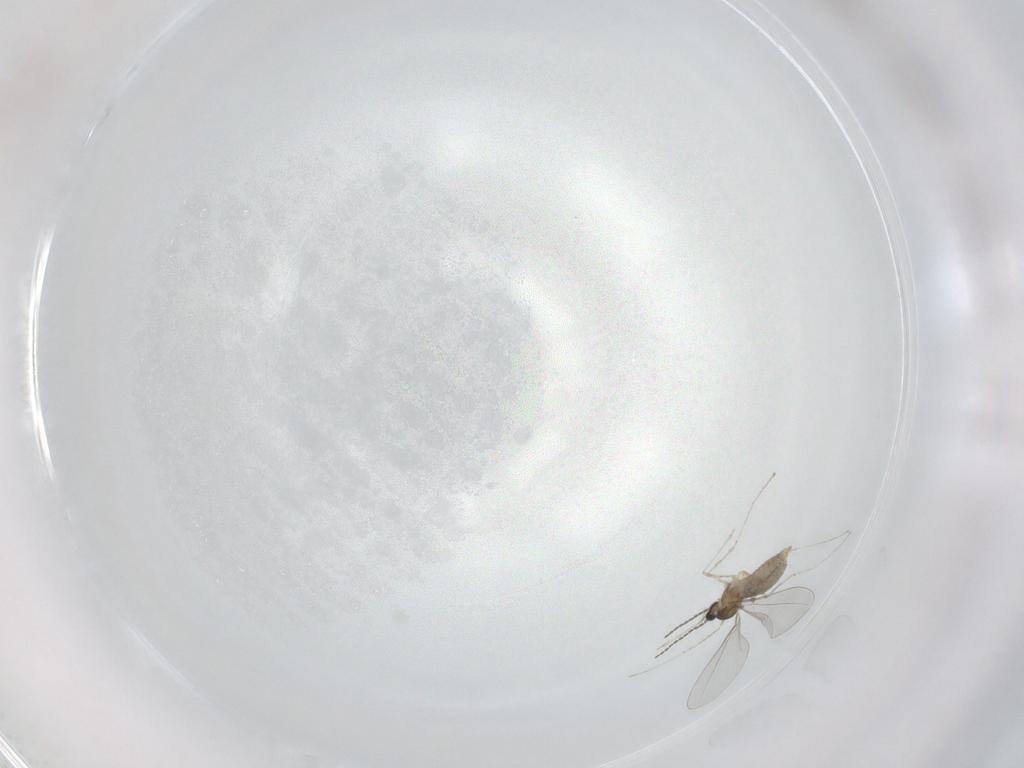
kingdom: Animalia
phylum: Arthropoda
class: Insecta
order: Diptera
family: Cecidomyiidae
